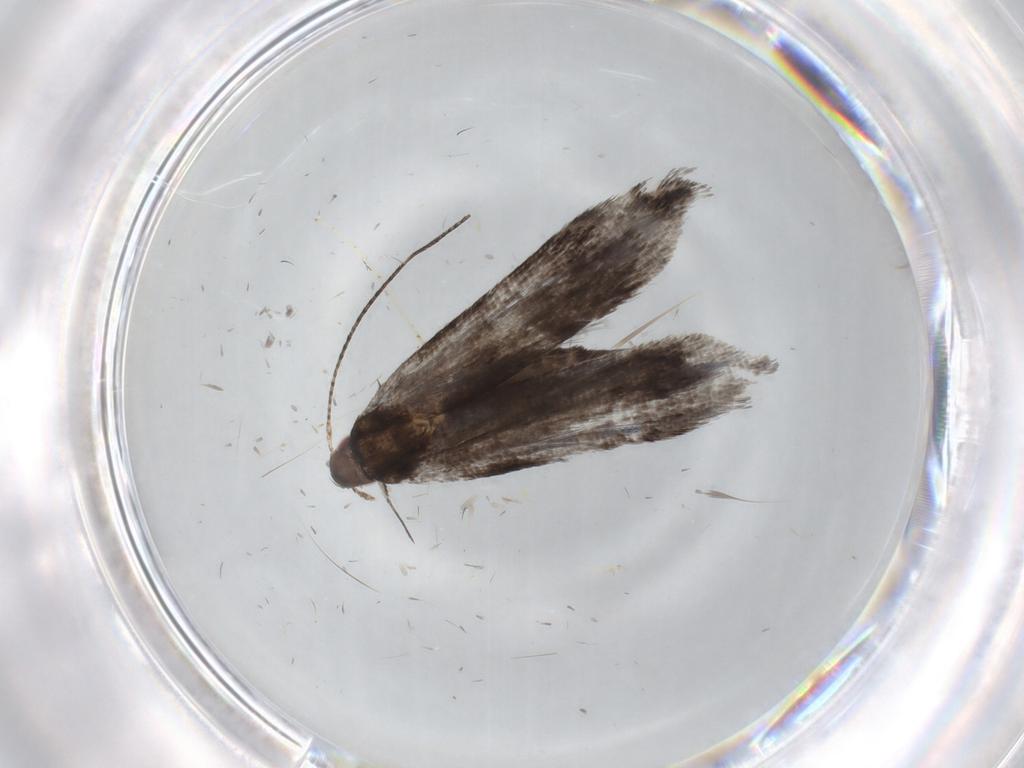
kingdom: Animalia
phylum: Arthropoda
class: Insecta
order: Lepidoptera
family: Gelechiidae
